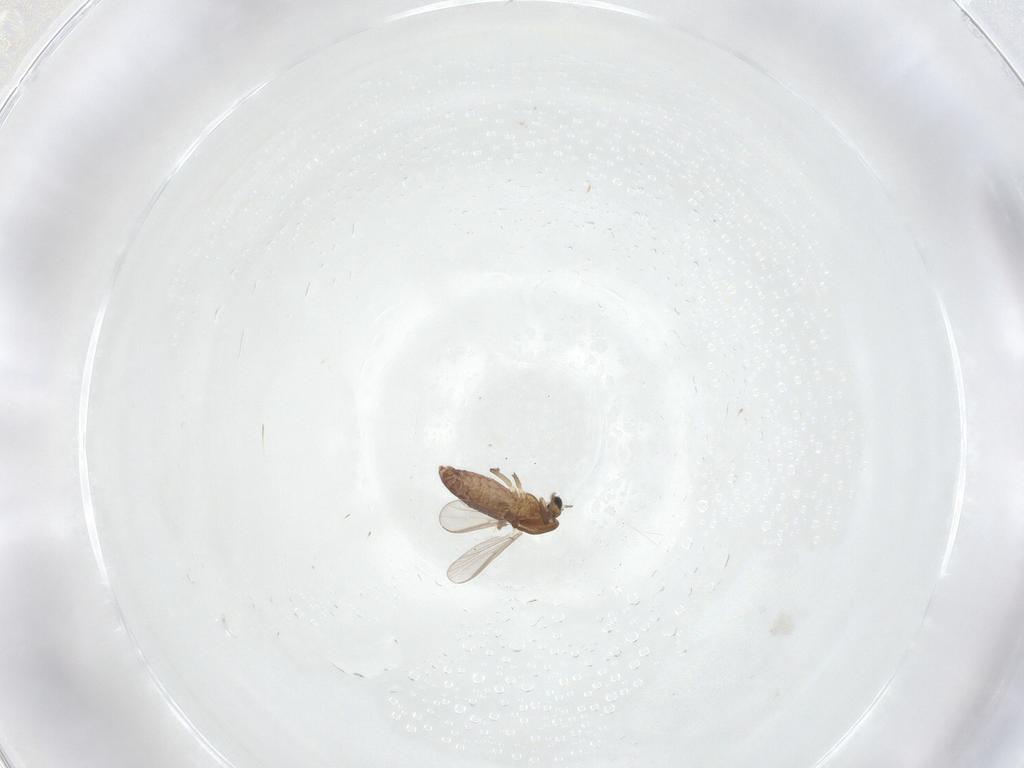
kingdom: Animalia
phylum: Arthropoda
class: Insecta
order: Diptera
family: Chironomidae
